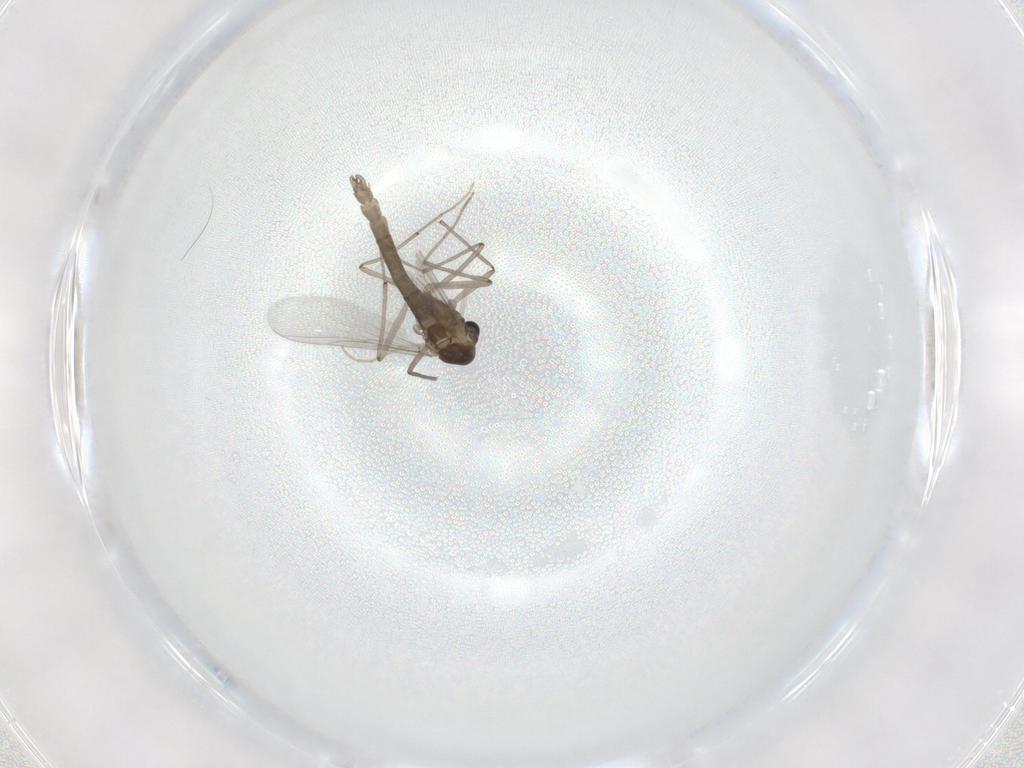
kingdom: Animalia
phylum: Arthropoda
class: Insecta
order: Diptera
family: Chironomidae
